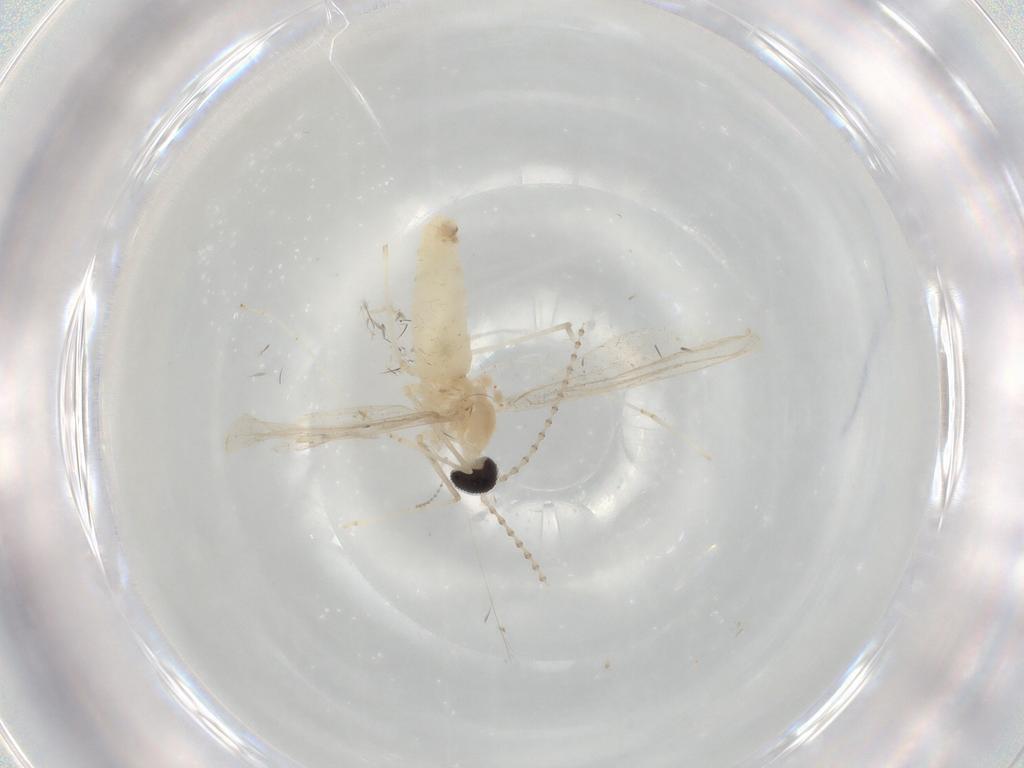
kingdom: Animalia
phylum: Arthropoda
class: Insecta
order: Diptera
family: Cecidomyiidae
